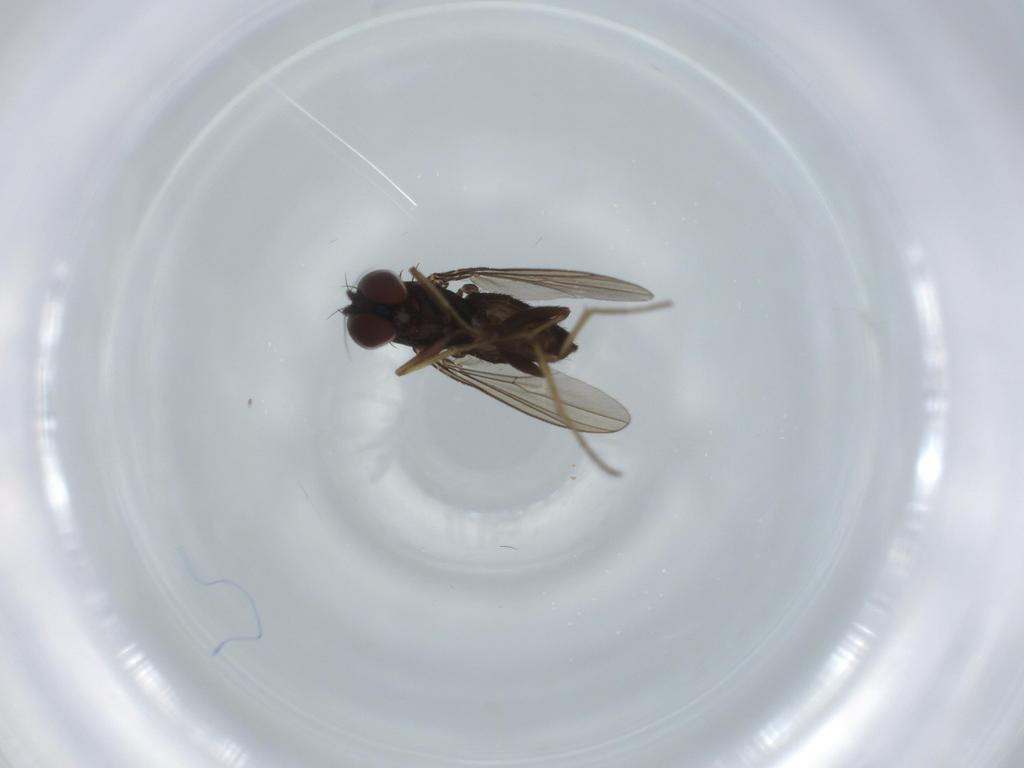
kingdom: Animalia
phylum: Arthropoda
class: Insecta
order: Diptera
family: Dolichopodidae
